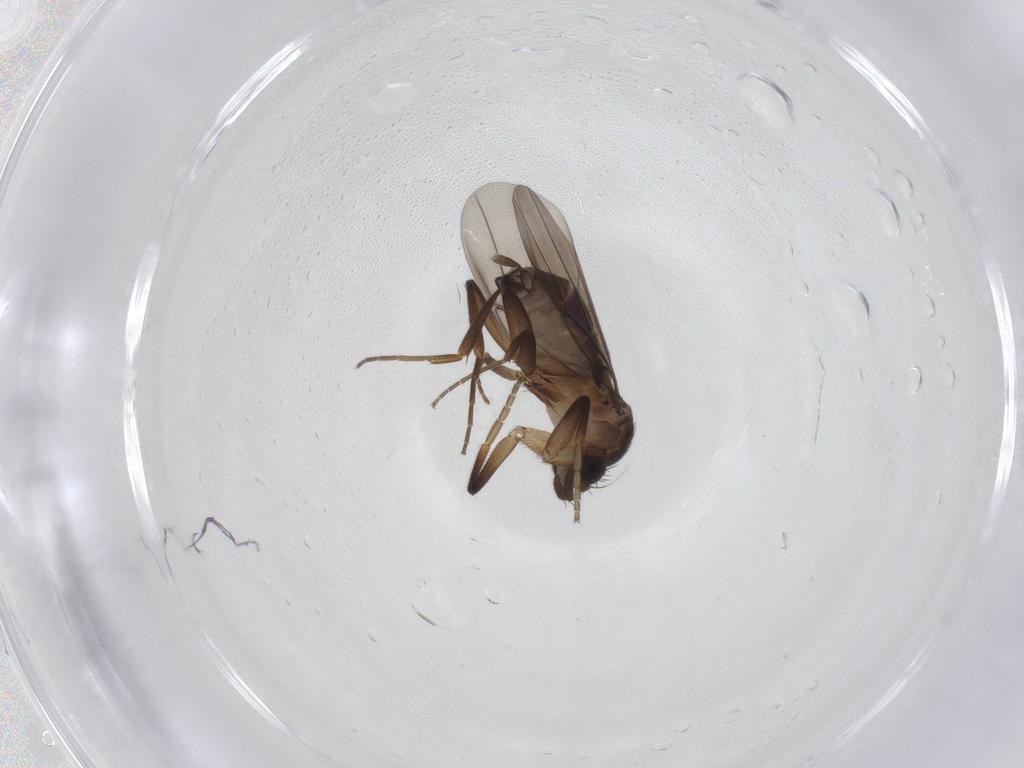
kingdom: Animalia
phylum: Arthropoda
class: Insecta
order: Diptera
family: Phoridae
